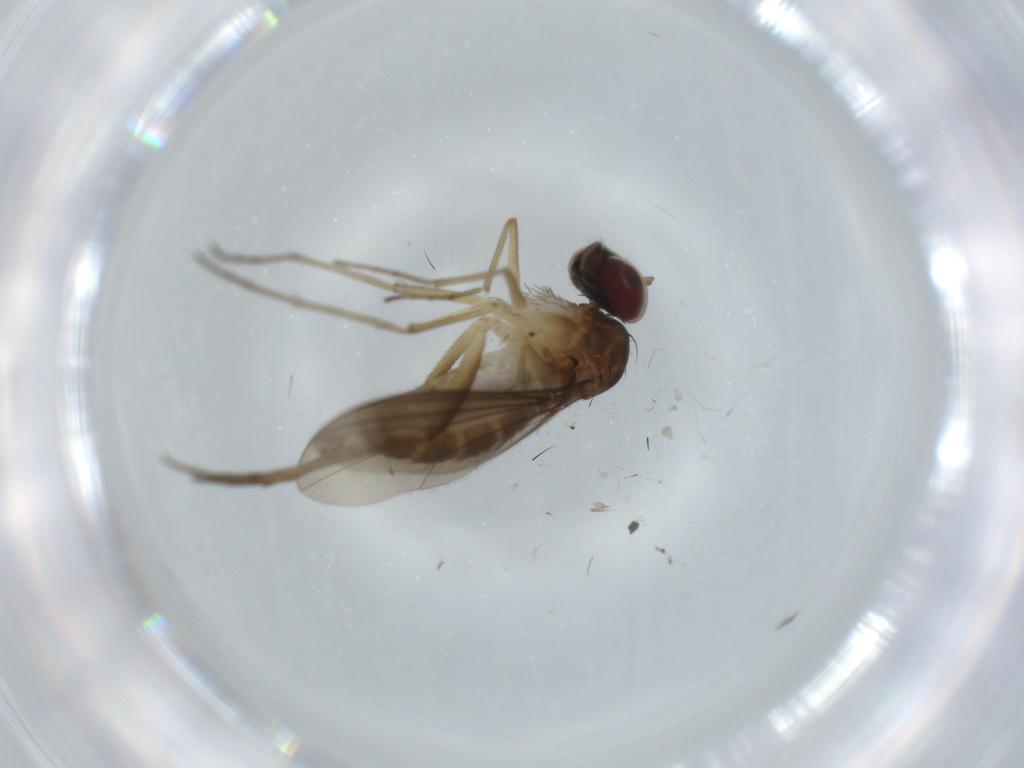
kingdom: Animalia
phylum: Arthropoda
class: Insecta
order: Diptera
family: Dolichopodidae
